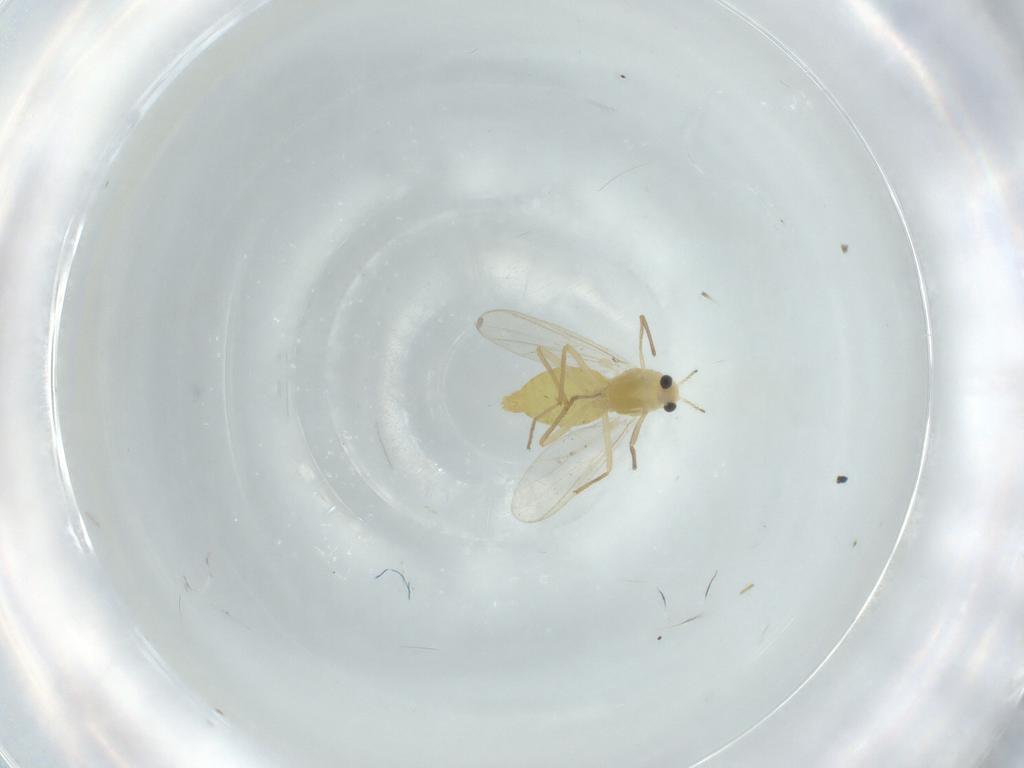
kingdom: Animalia
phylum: Arthropoda
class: Insecta
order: Diptera
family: Chironomidae
